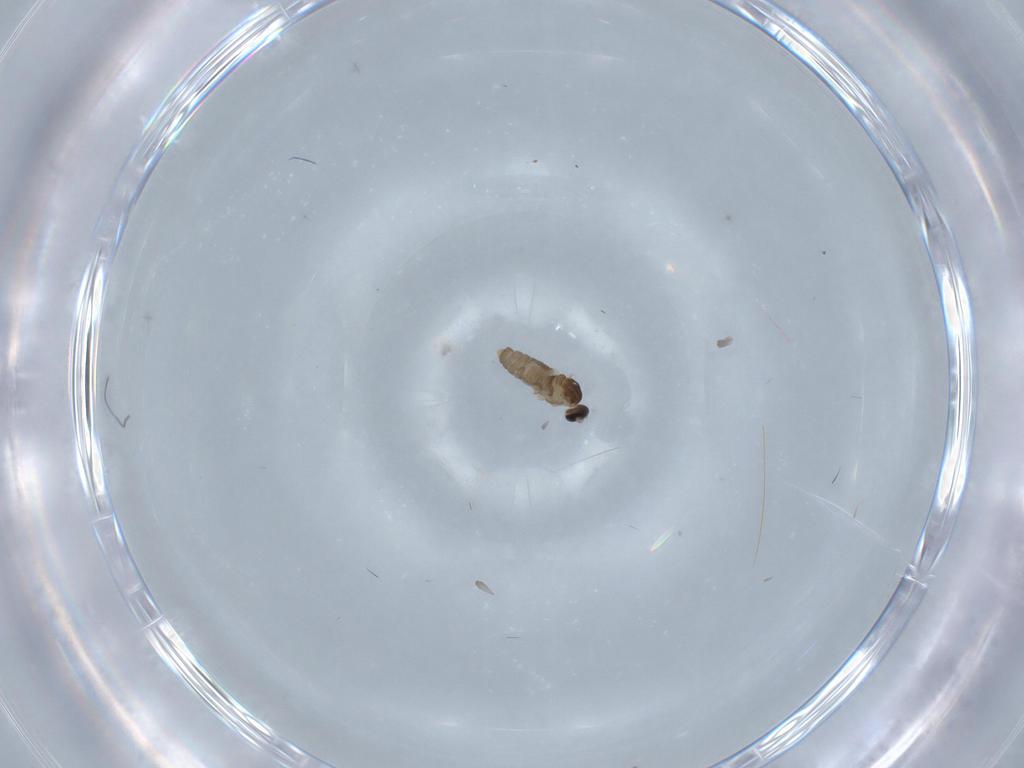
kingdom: Animalia
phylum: Arthropoda
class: Insecta
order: Diptera
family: Cecidomyiidae
